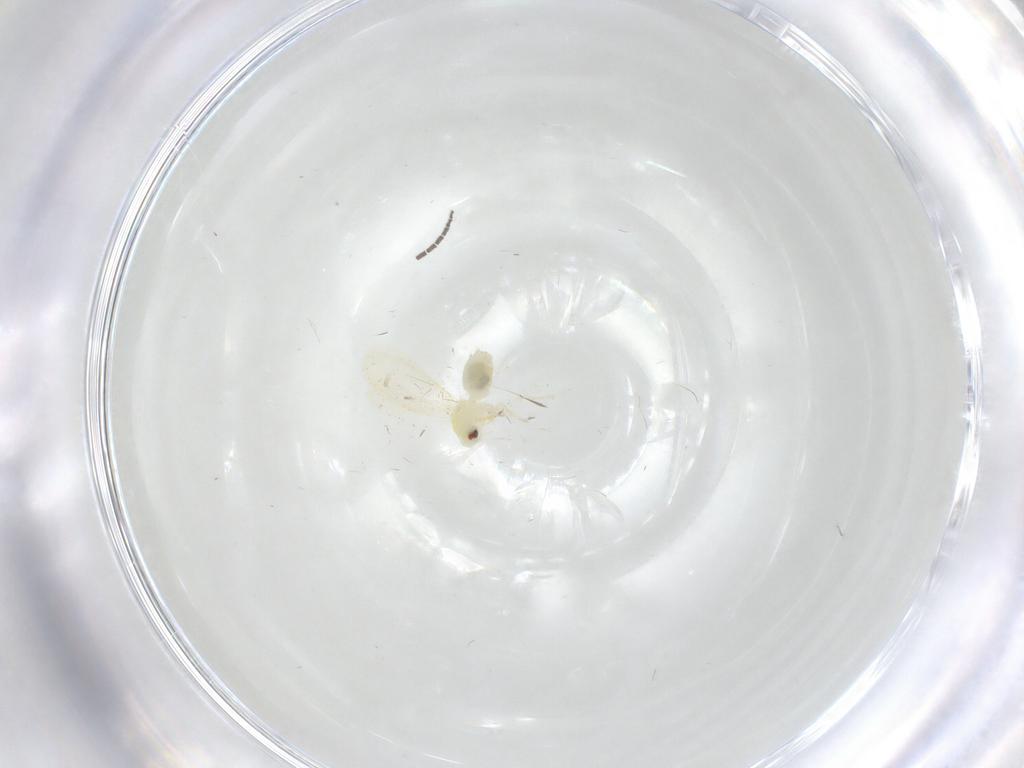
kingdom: Animalia
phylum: Arthropoda
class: Insecta
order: Hemiptera
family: Aleyrodidae
